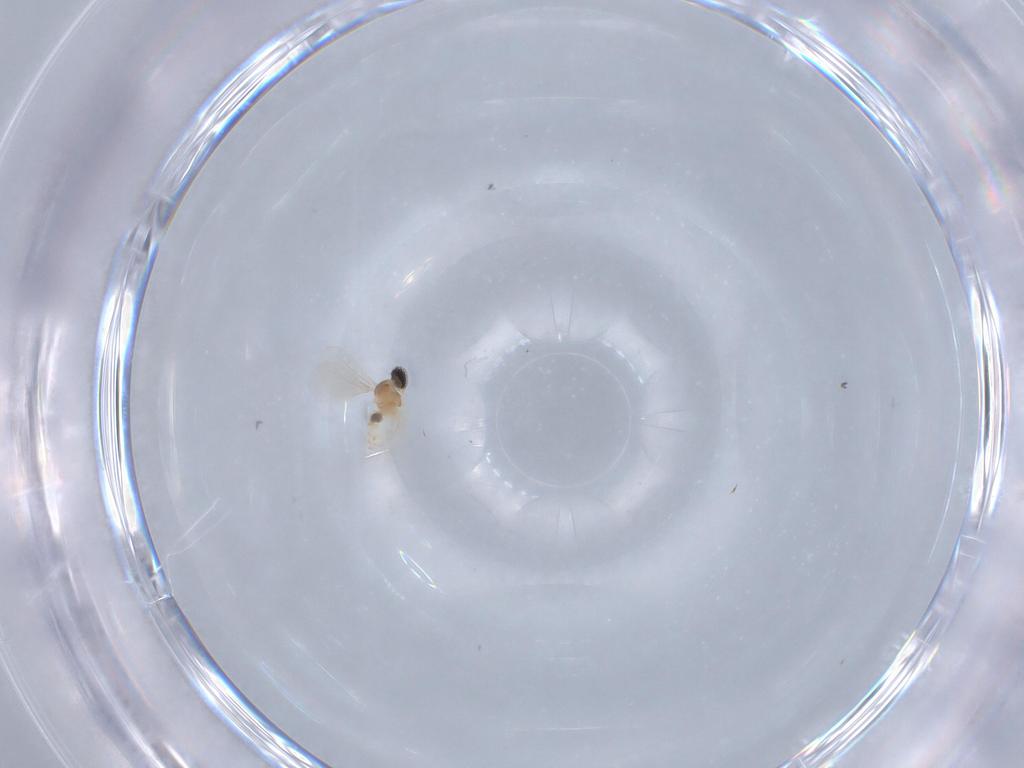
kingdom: Animalia
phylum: Arthropoda
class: Insecta
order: Diptera
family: Cecidomyiidae
